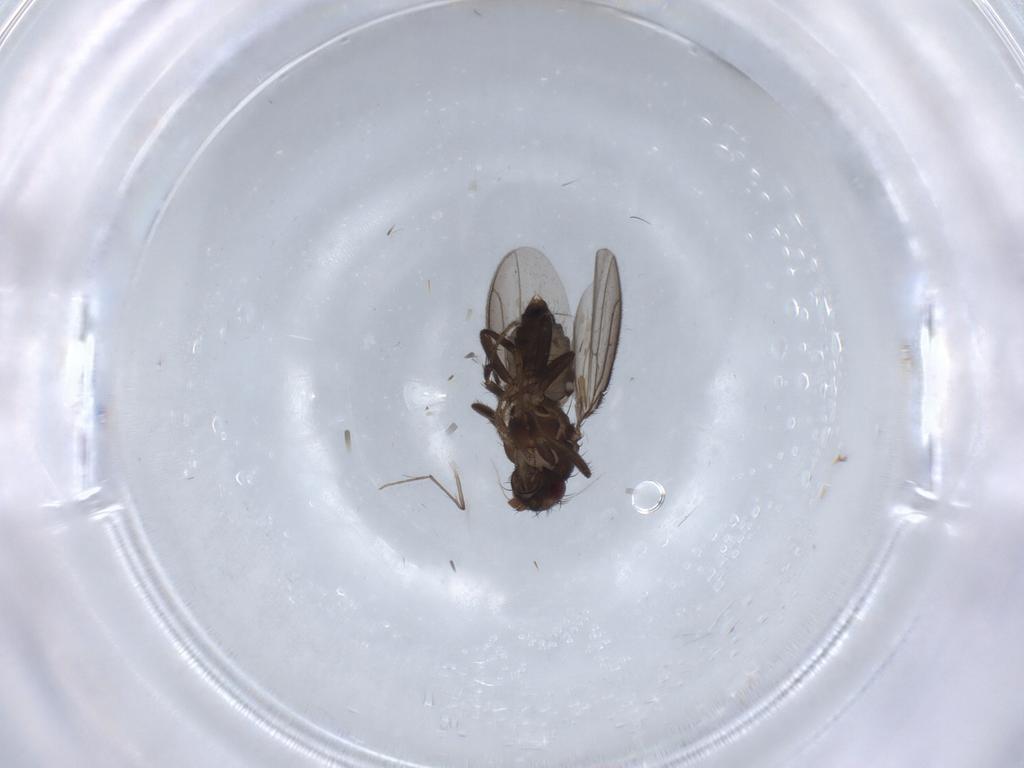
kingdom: Animalia
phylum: Arthropoda
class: Insecta
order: Diptera
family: Sphaeroceridae
